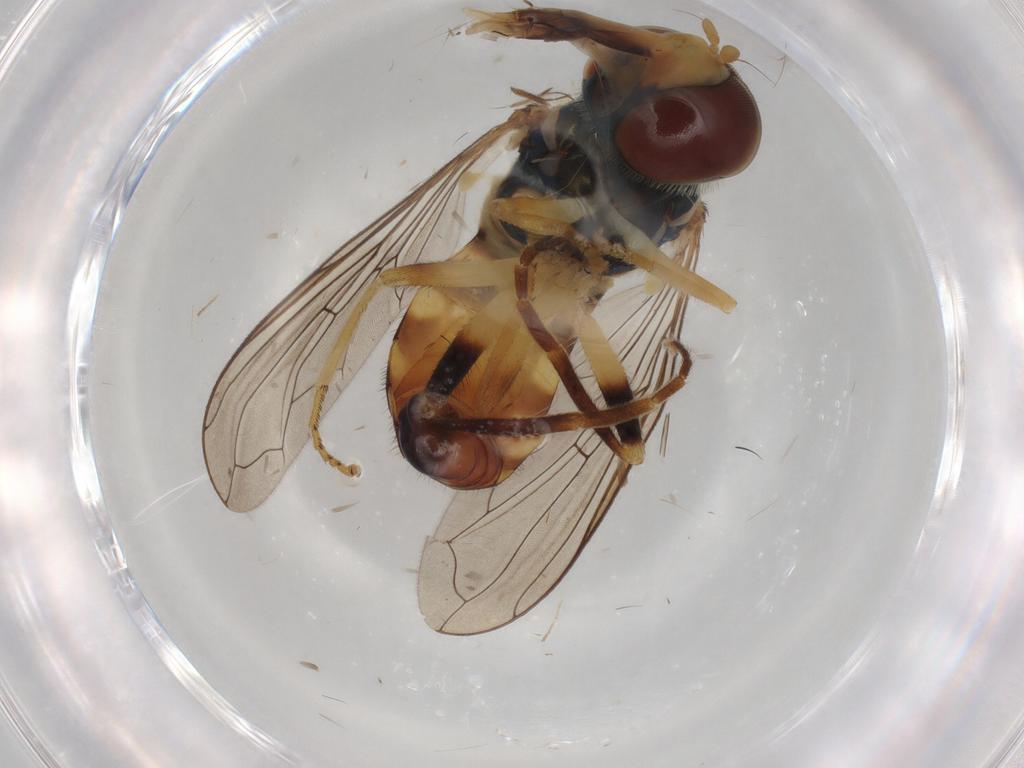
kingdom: Animalia
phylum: Arthropoda
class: Insecta
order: Diptera
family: Syrphidae
